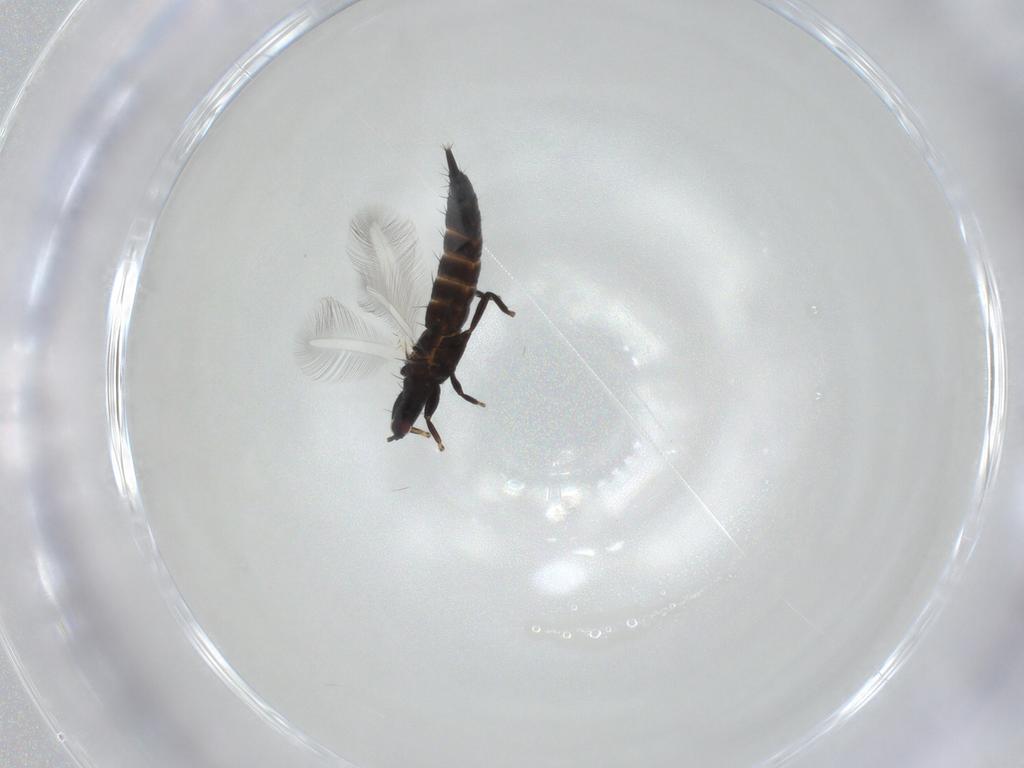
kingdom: Animalia
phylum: Arthropoda
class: Insecta
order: Thysanoptera
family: Phlaeothripidae
